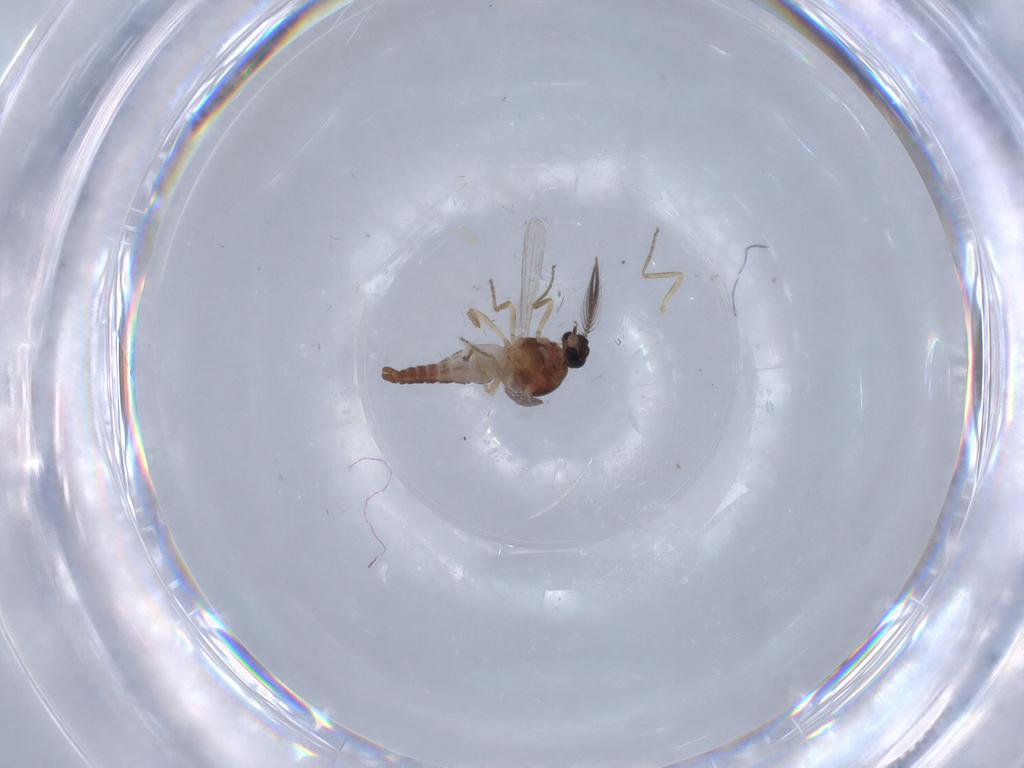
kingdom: Animalia
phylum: Arthropoda
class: Insecta
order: Diptera
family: Ceratopogonidae
